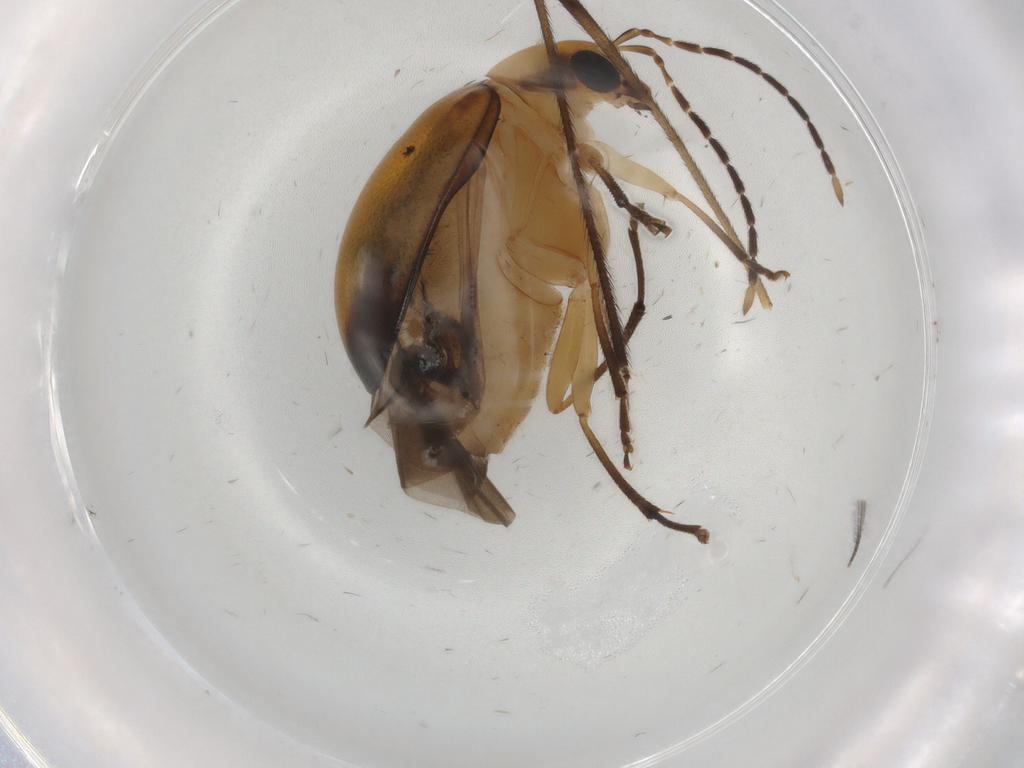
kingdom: Animalia
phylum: Arthropoda
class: Insecta
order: Coleoptera
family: Chrysomelidae
